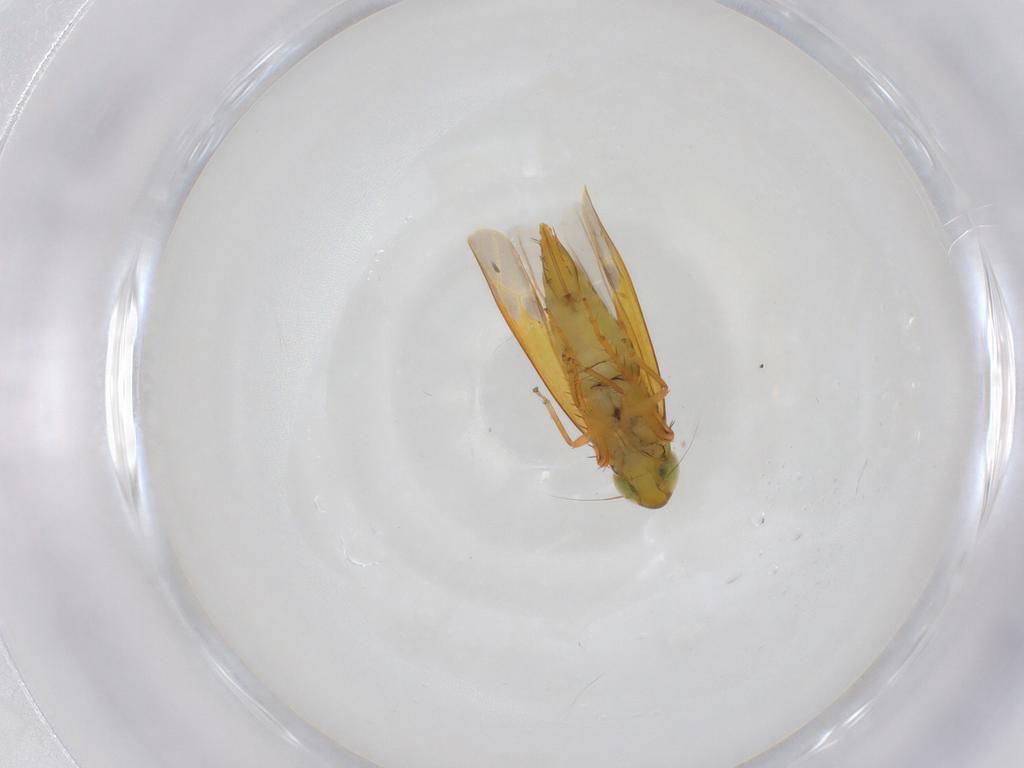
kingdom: Animalia
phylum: Arthropoda
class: Insecta
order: Hemiptera
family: Cicadellidae
